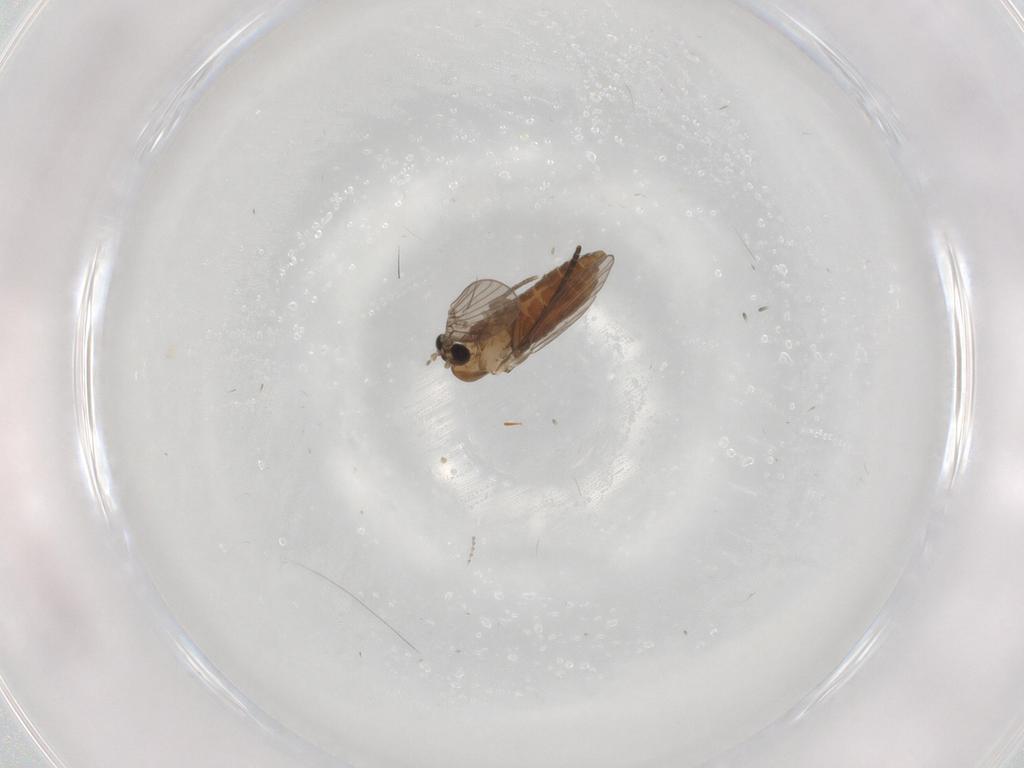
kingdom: Animalia
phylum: Arthropoda
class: Insecta
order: Diptera
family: Psychodidae
